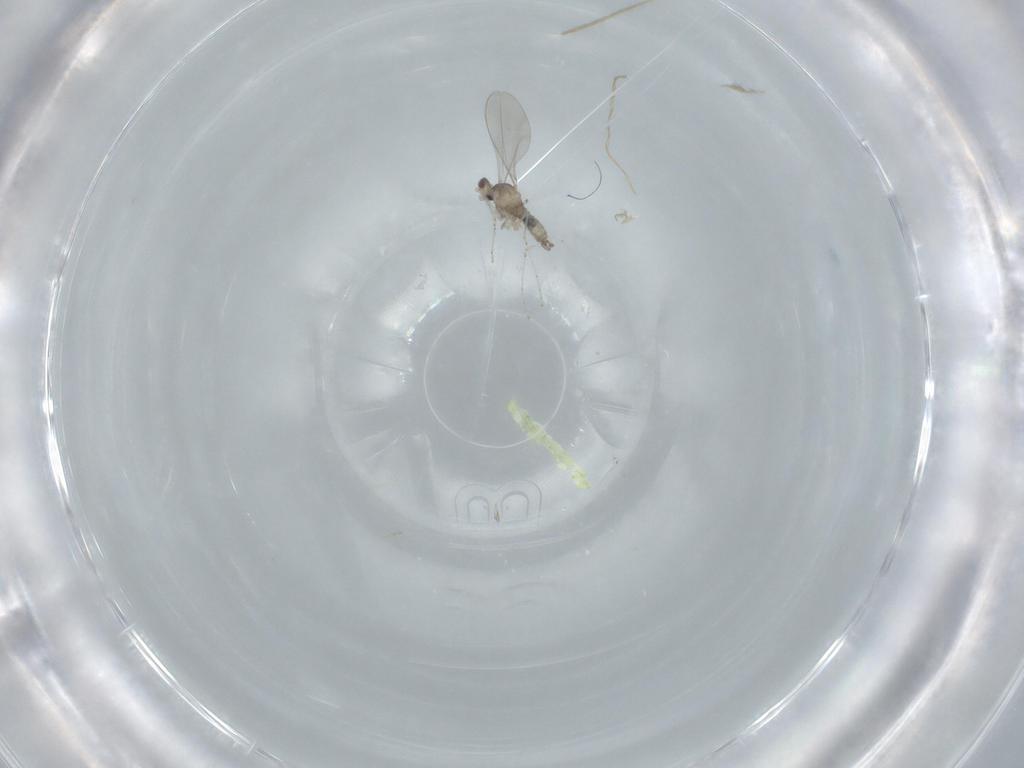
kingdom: Animalia
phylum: Arthropoda
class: Insecta
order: Diptera
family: Cecidomyiidae
